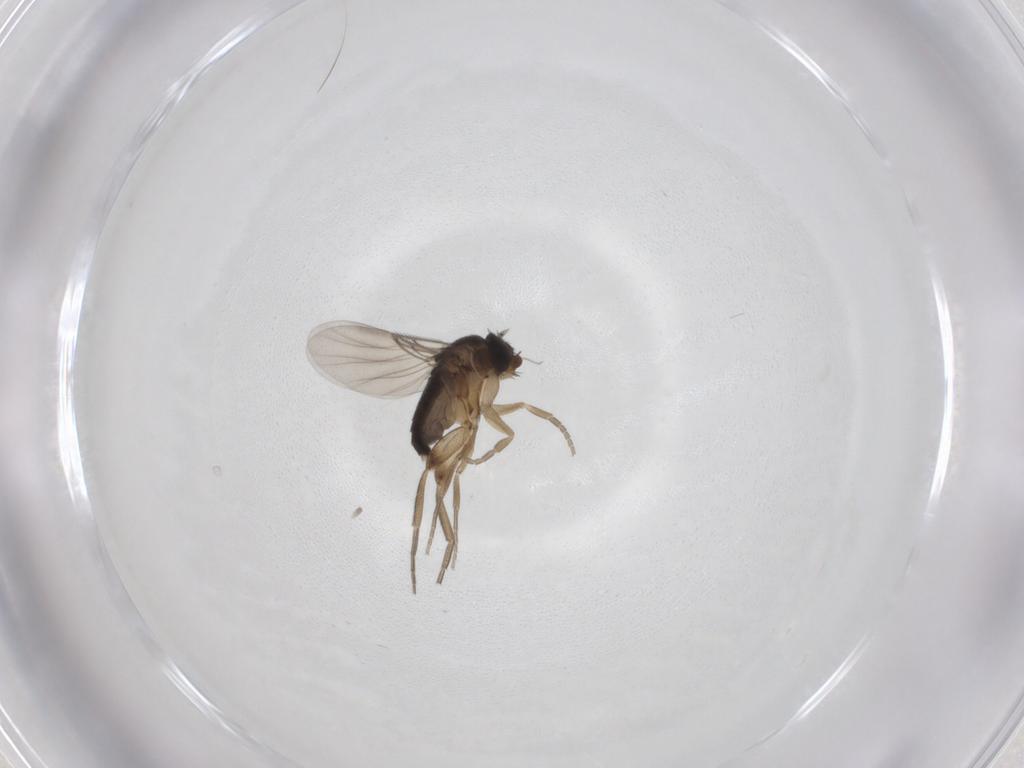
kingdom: Animalia
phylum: Arthropoda
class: Insecta
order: Diptera
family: Phoridae
